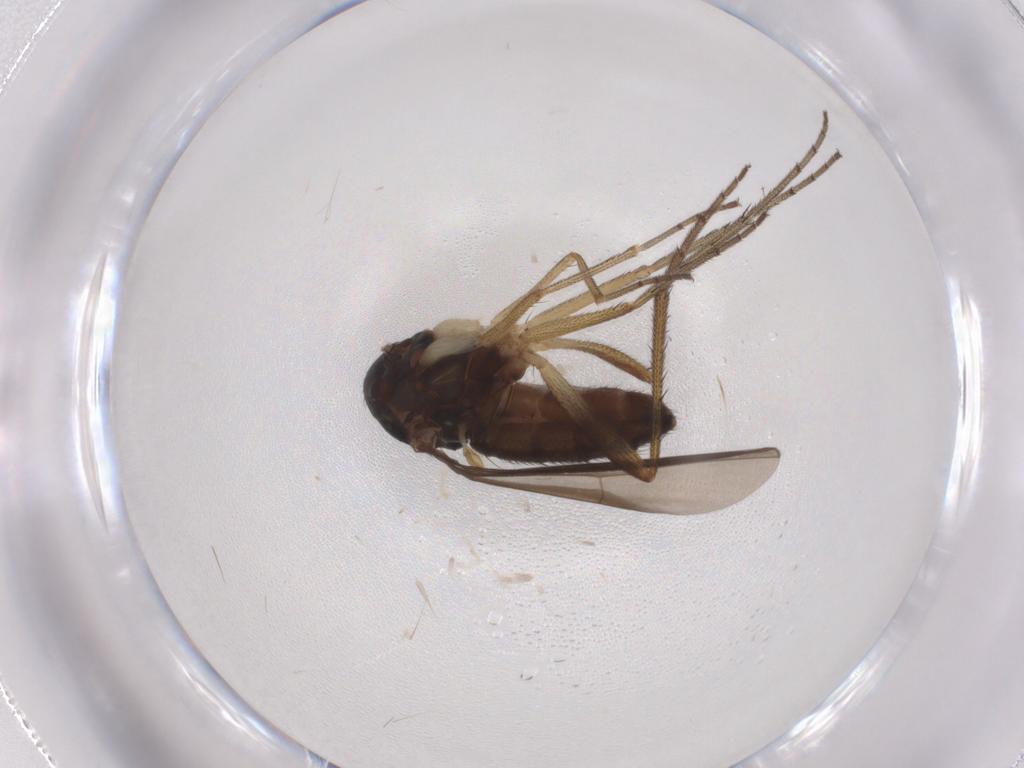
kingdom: Animalia
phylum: Arthropoda
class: Insecta
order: Diptera
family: Dolichopodidae
